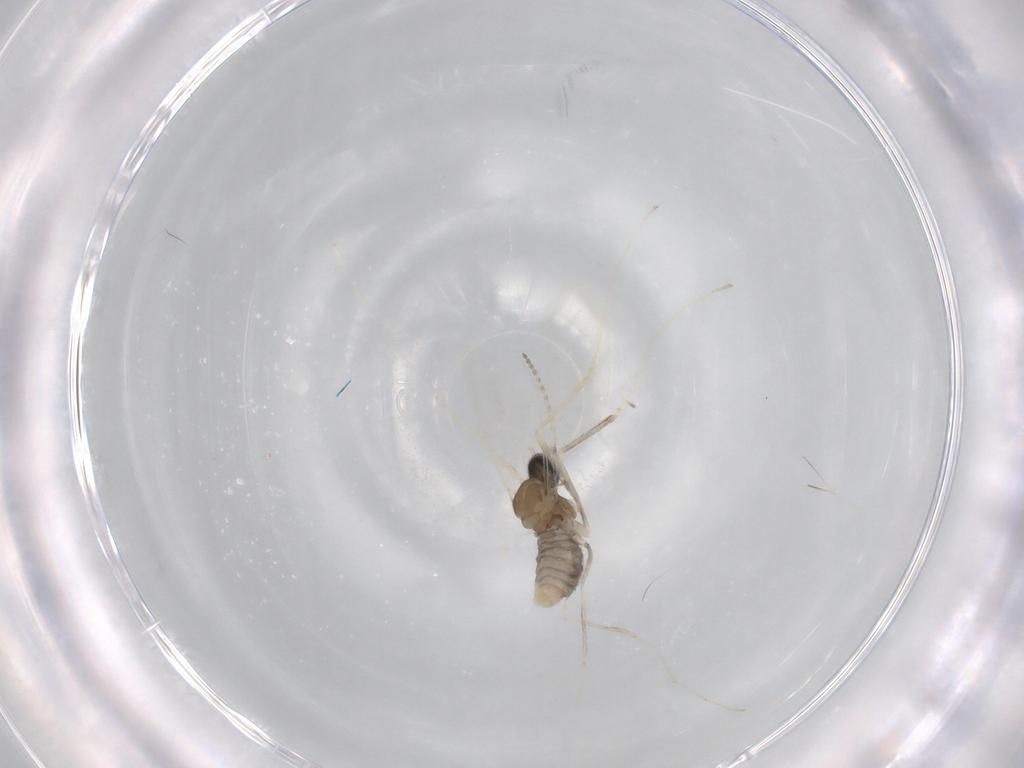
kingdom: Animalia
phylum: Arthropoda
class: Insecta
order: Diptera
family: Cecidomyiidae
